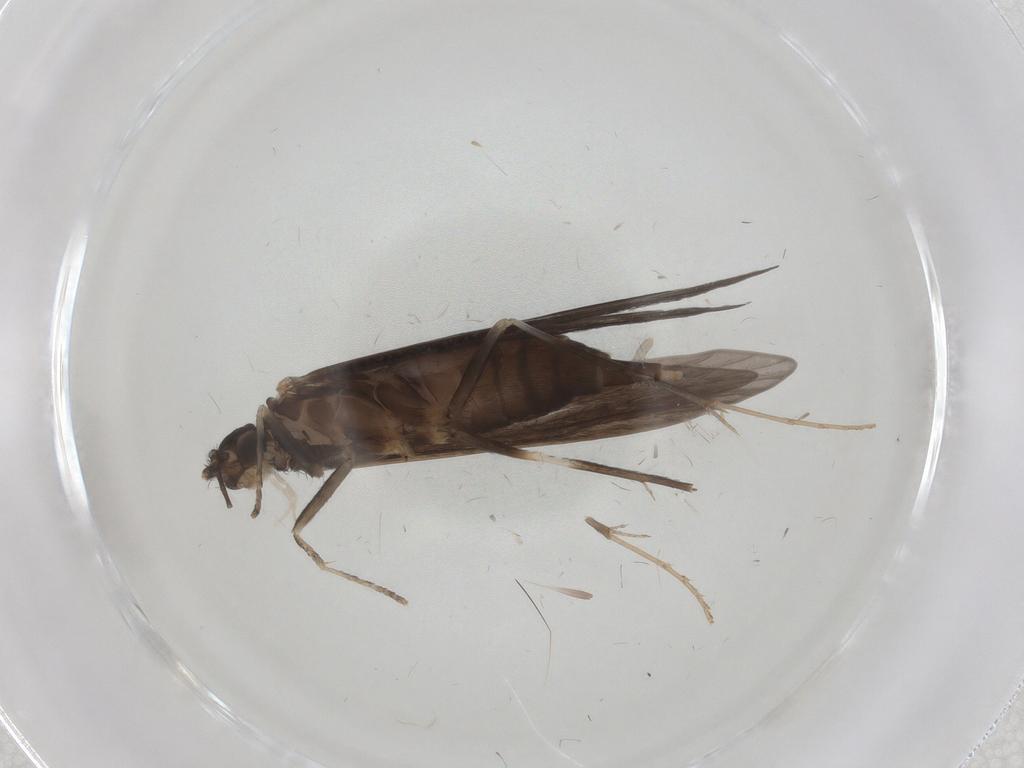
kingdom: Animalia
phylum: Arthropoda
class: Insecta
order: Trichoptera
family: Xiphocentronidae
